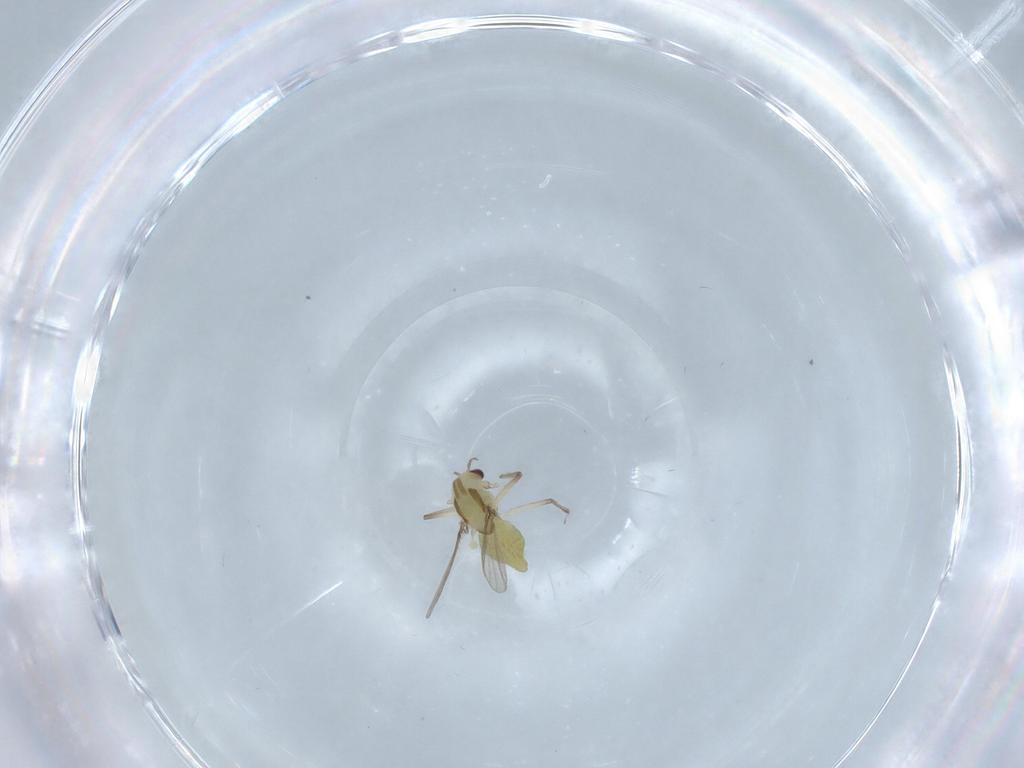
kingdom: Animalia
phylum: Arthropoda
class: Insecta
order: Diptera
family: Chironomidae
